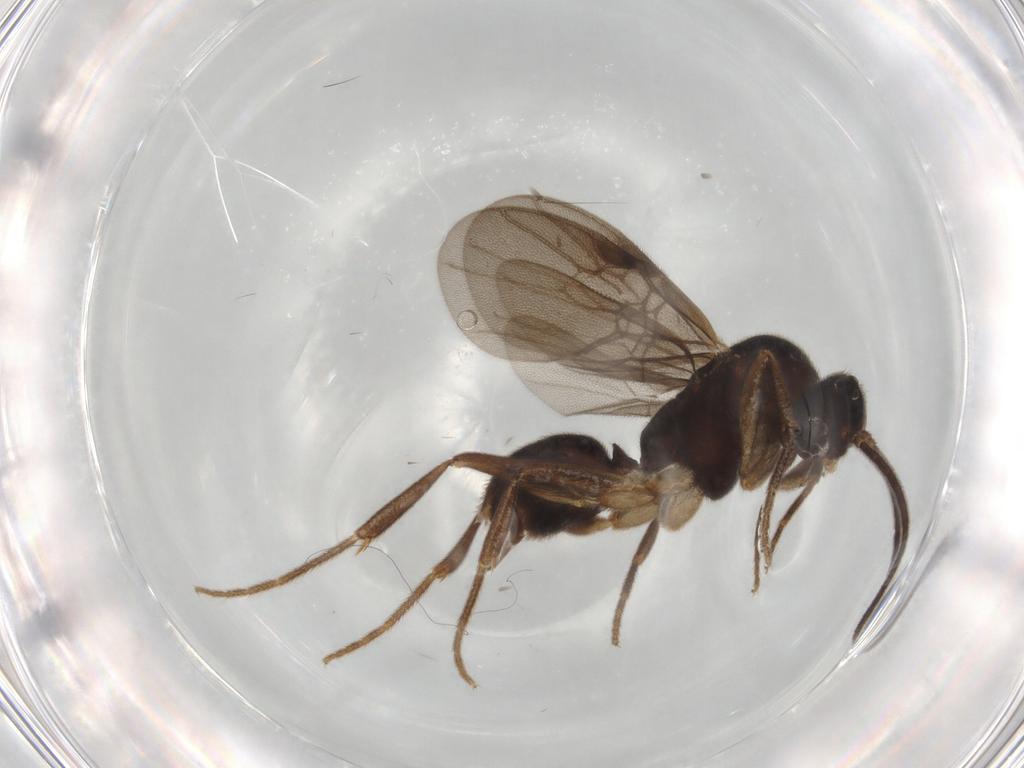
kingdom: Animalia
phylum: Arthropoda
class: Insecta
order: Hymenoptera
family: Formicidae
